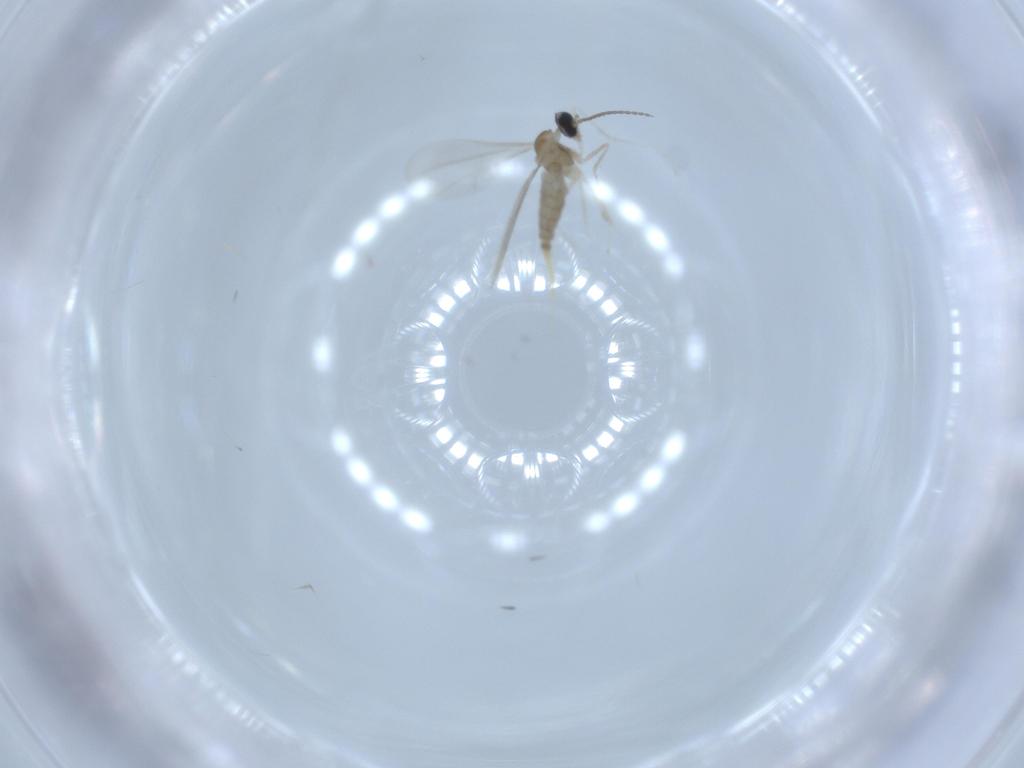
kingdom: Animalia
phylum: Arthropoda
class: Insecta
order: Diptera
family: Cecidomyiidae
